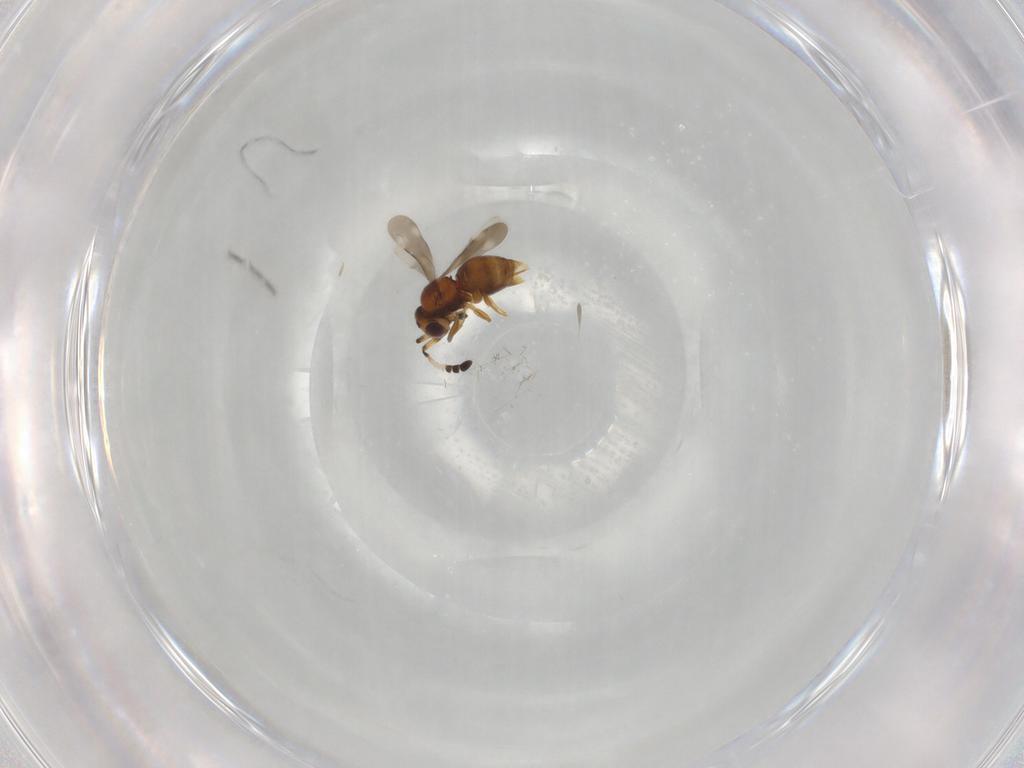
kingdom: Animalia
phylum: Arthropoda
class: Insecta
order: Hymenoptera
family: Ceraphronidae
